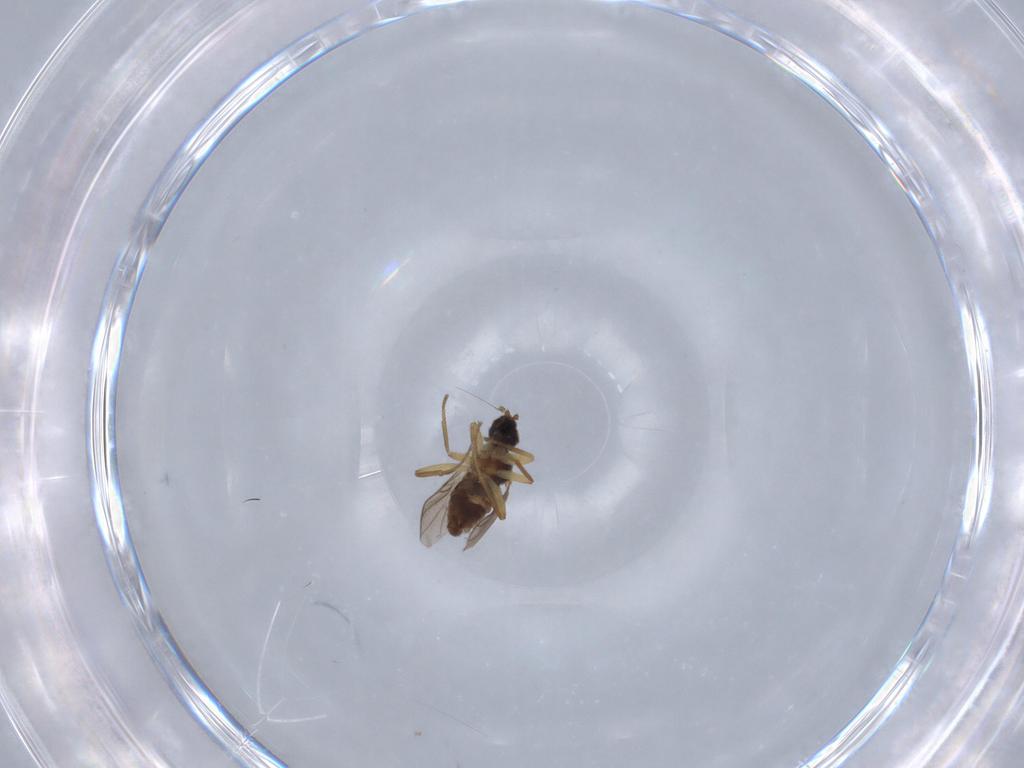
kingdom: Animalia
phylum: Arthropoda
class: Insecta
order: Diptera
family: Hybotidae
